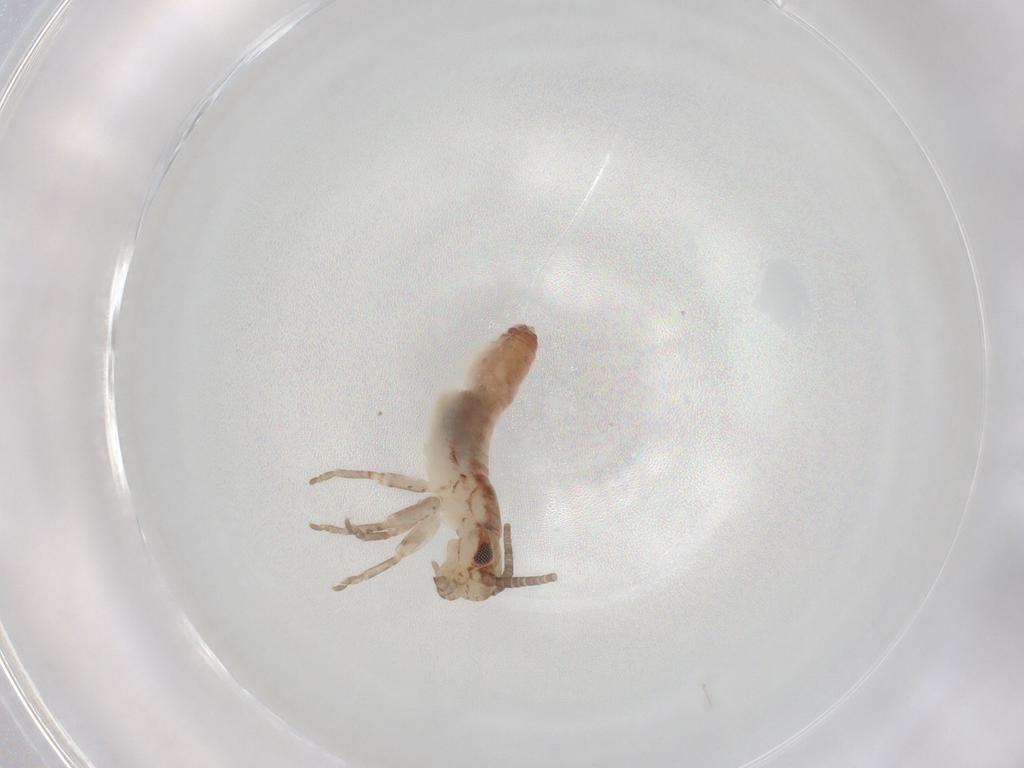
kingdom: Animalia
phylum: Arthropoda
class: Insecta
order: Orthoptera
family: Mogoplistidae
